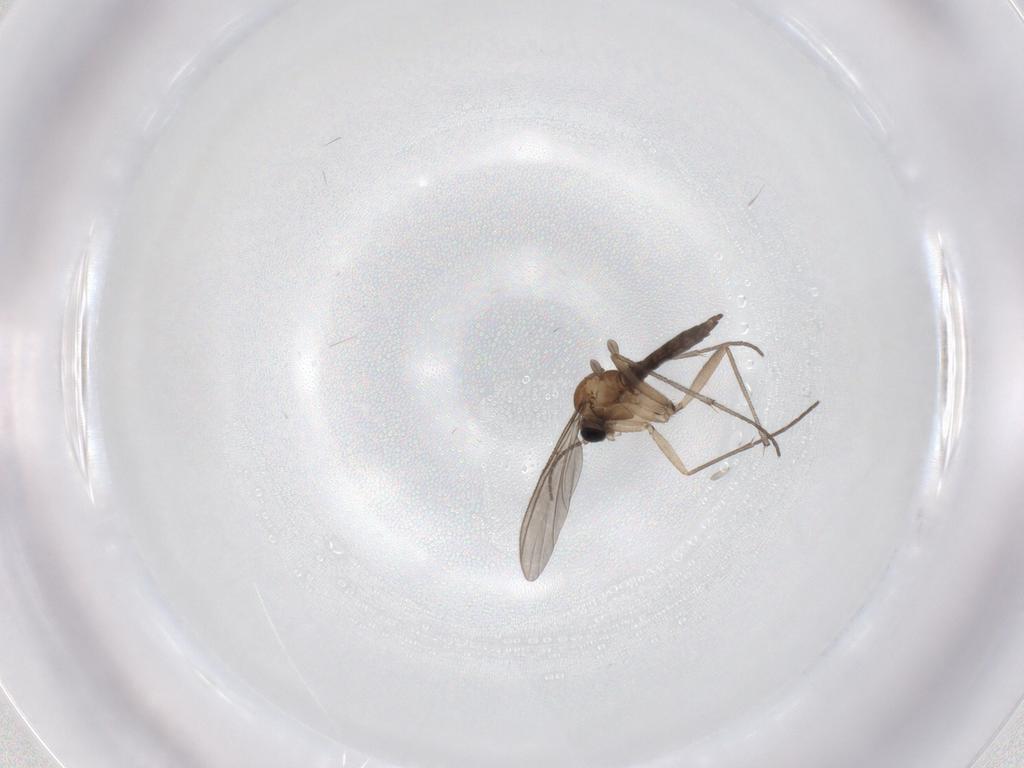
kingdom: Animalia
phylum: Arthropoda
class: Insecta
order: Diptera
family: Sciaridae
